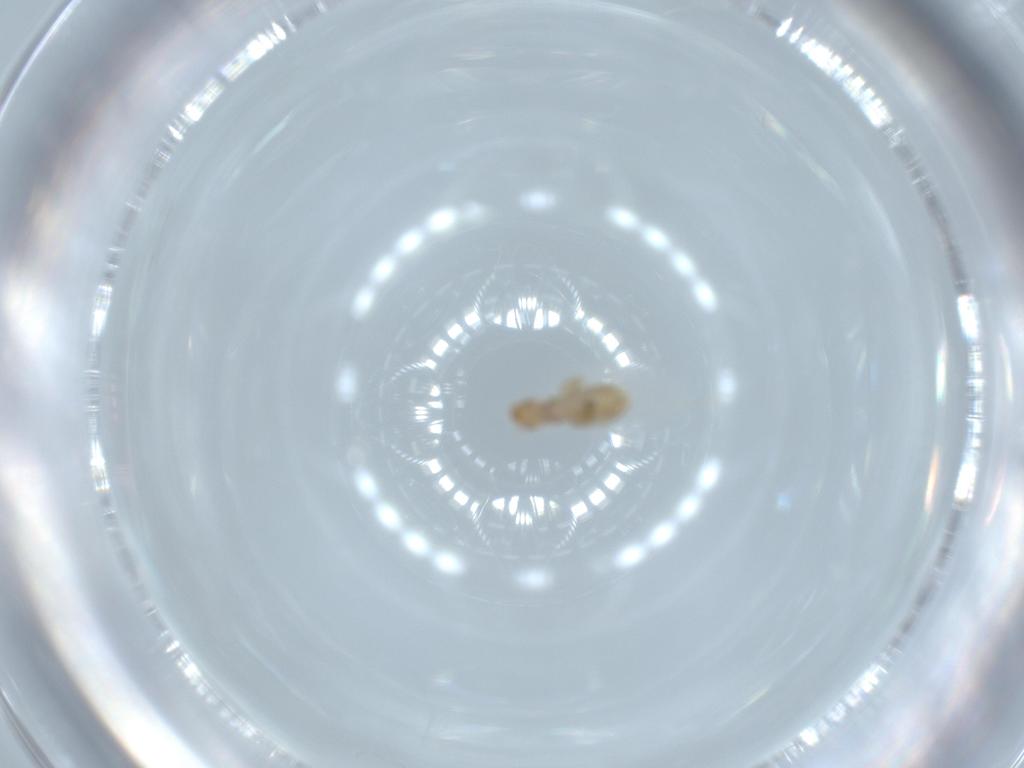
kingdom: Animalia
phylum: Arthropoda
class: Insecta
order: Psocodea
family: Liposcelididae
